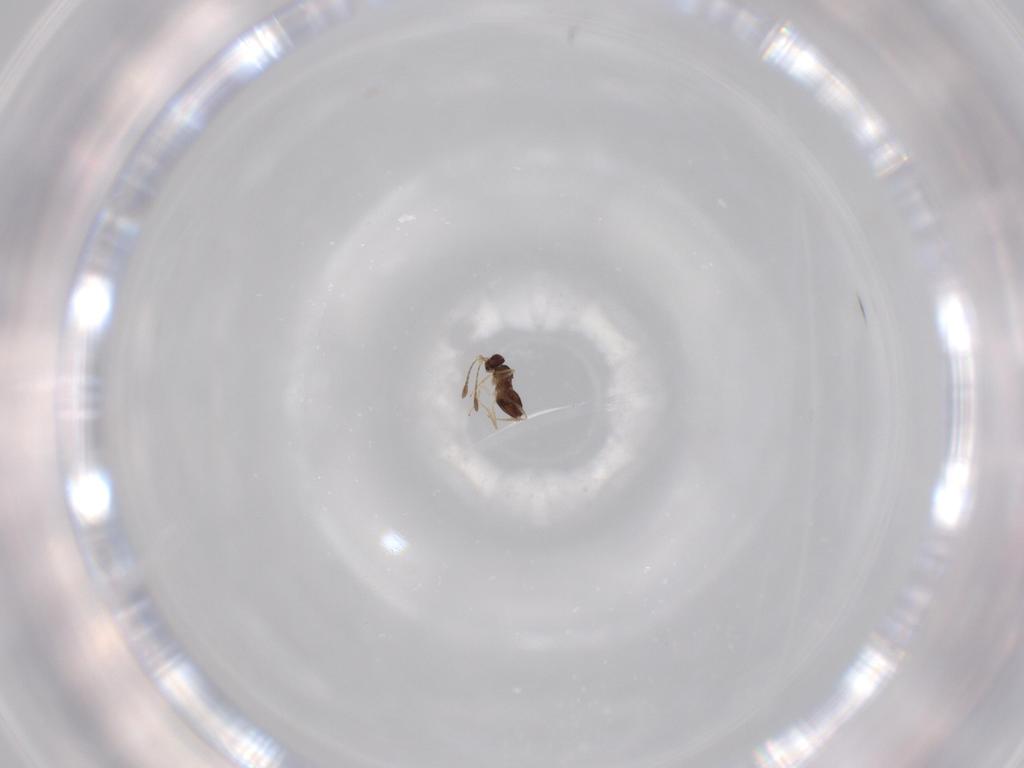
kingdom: Animalia
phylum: Arthropoda
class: Insecta
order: Hymenoptera
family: Mymaridae
